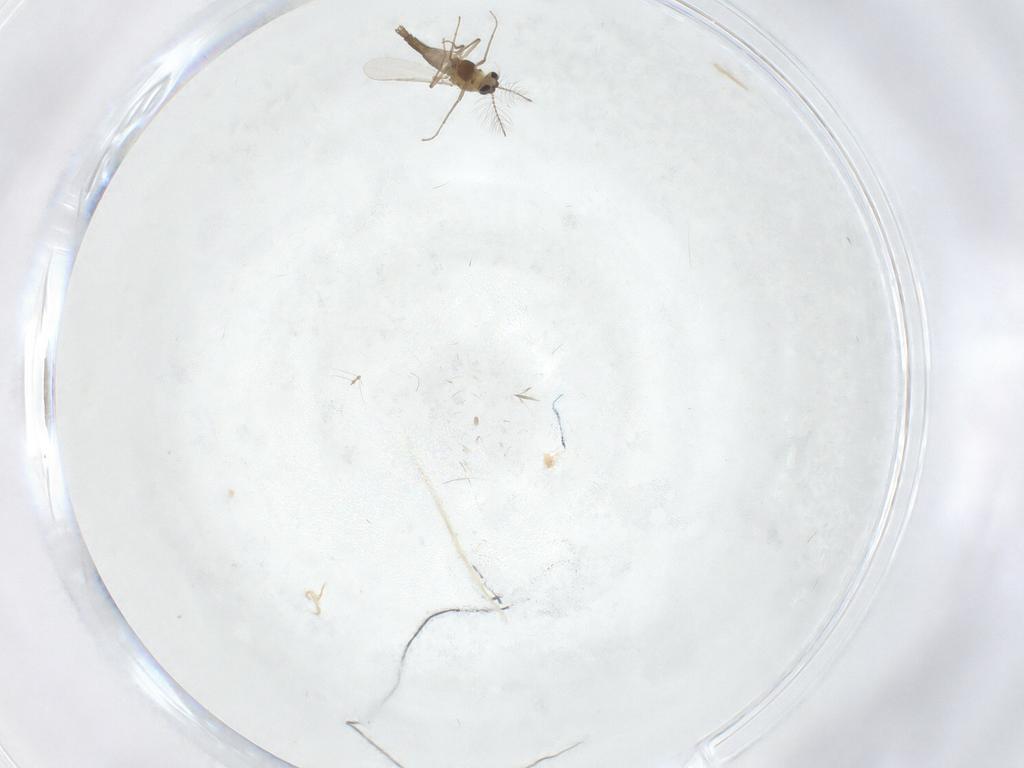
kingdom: Animalia
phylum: Arthropoda
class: Insecta
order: Diptera
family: Chironomidae
